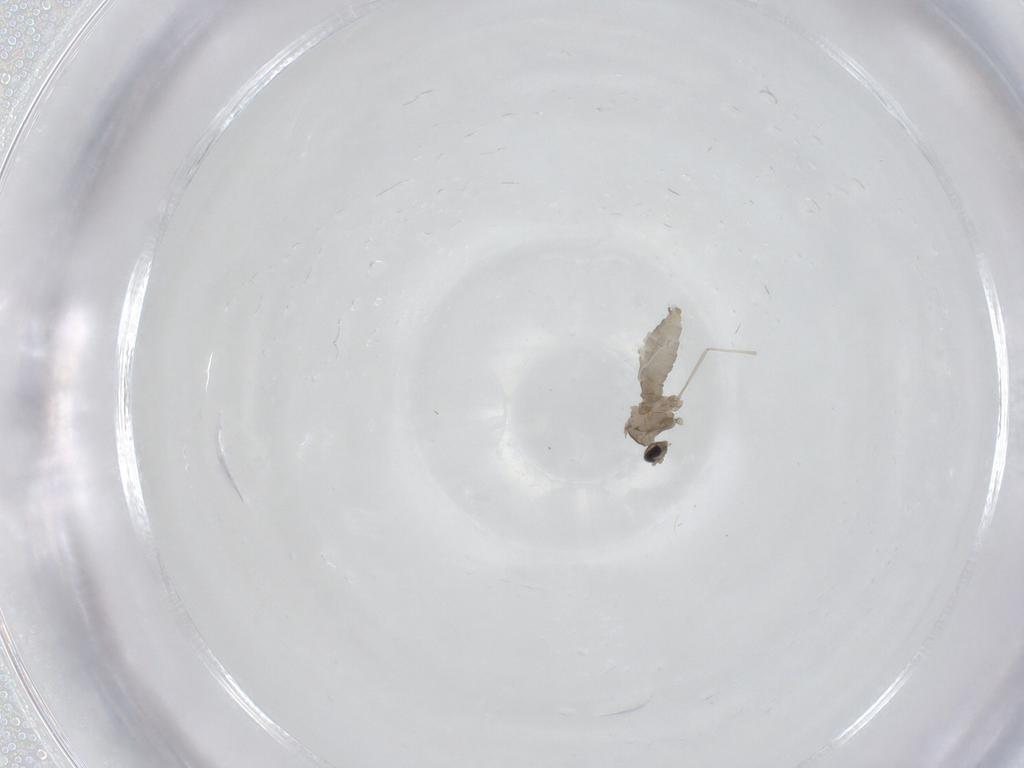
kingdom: Animalia
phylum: Arthropoda
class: Insecta
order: Diptera
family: Cecidomyiidae
